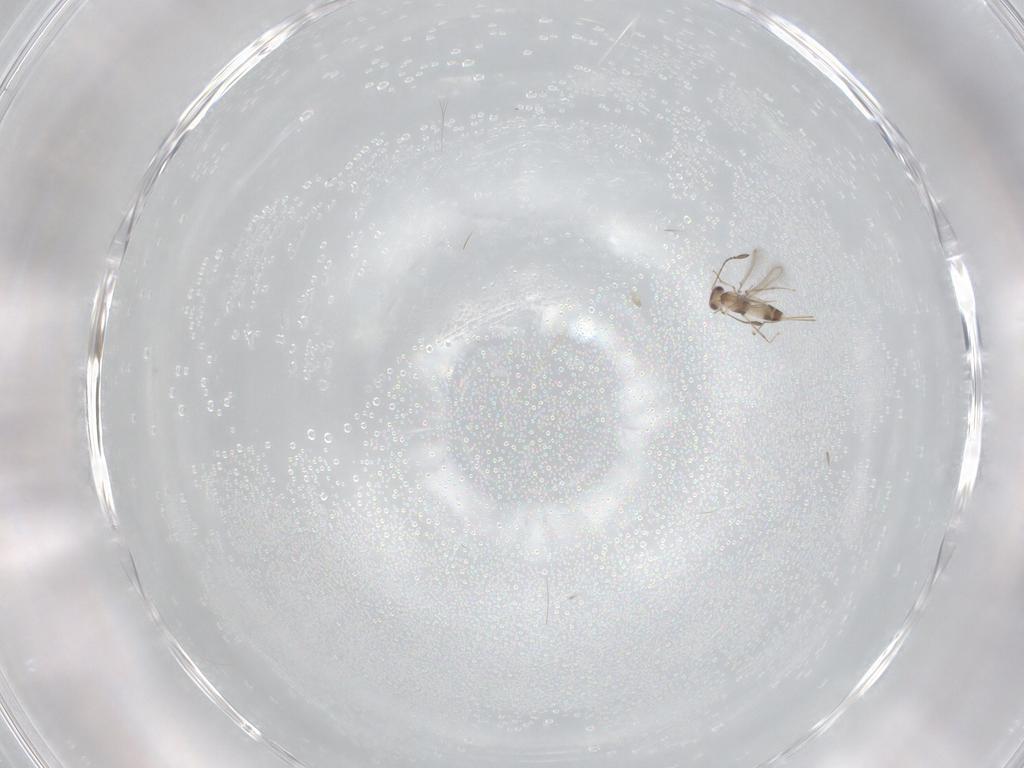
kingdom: Animalia
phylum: Arthropoda
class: Insecta
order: Hymenoptera
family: Mymaridae
